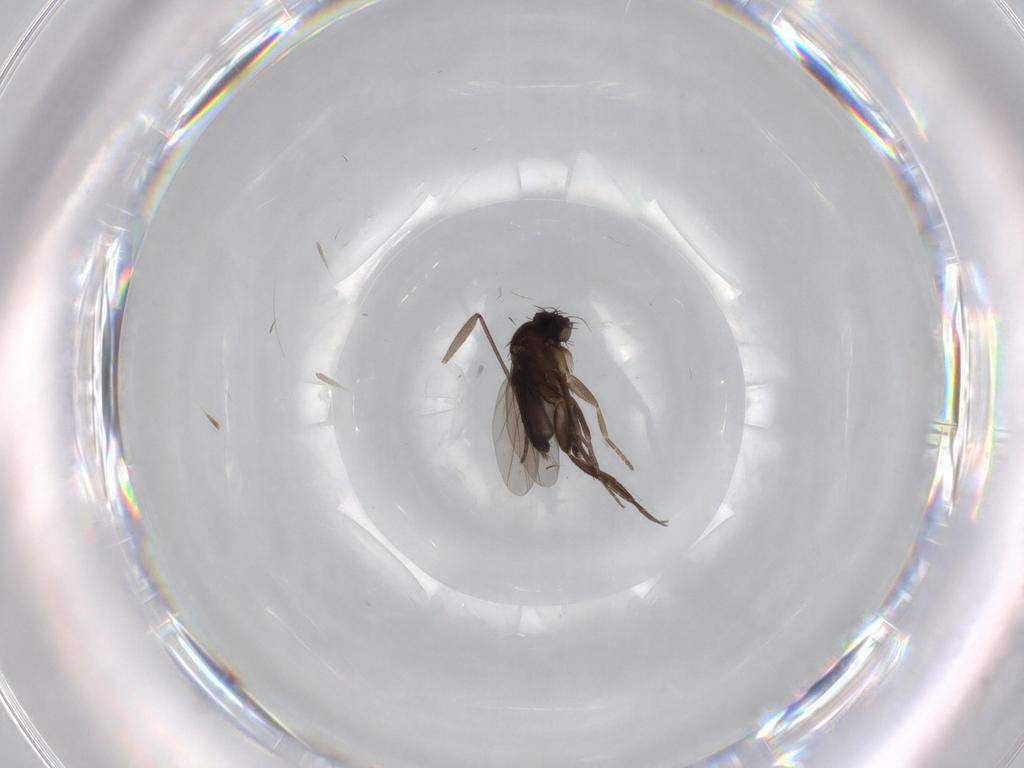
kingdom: Animalia
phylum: Arthropoda
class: Insecta
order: Diptera
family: Phoridae
